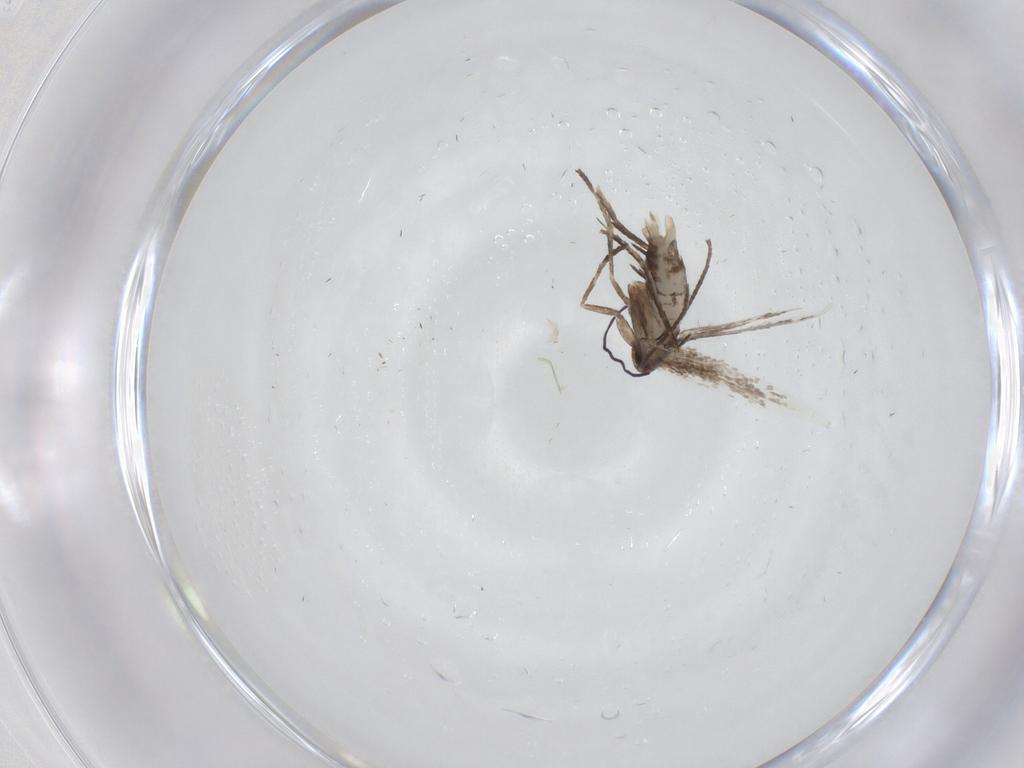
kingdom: Animalia
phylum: Arthropoda
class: Insecta
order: Lepidoptera
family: Gracillariidae
